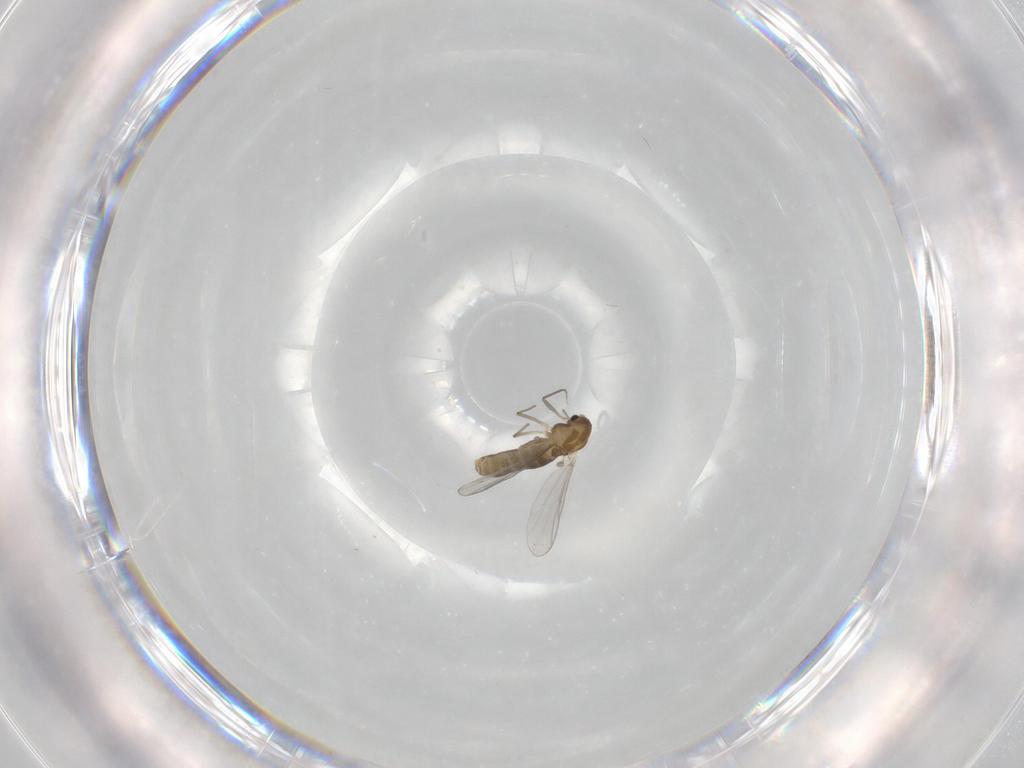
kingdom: Animalia
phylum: Arthropoda
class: Insecta
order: Diptera
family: Chironomidae
